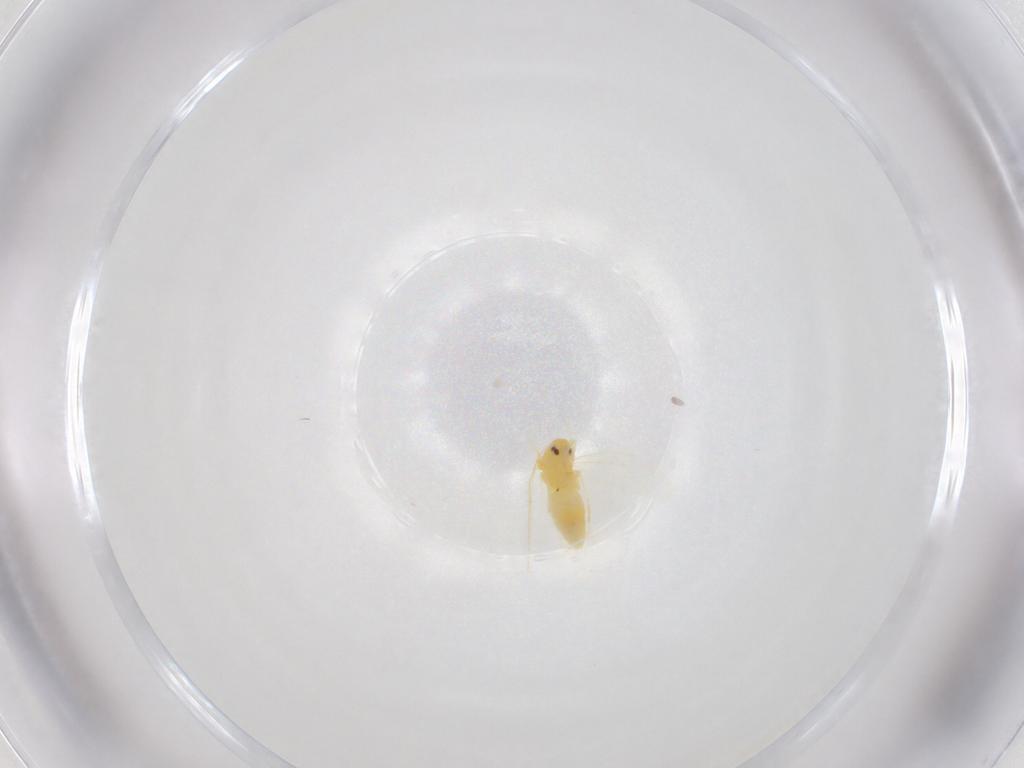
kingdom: Animalia
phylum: Arthropoda
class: Insecta
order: Hemiptera
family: Aleyrodidae
